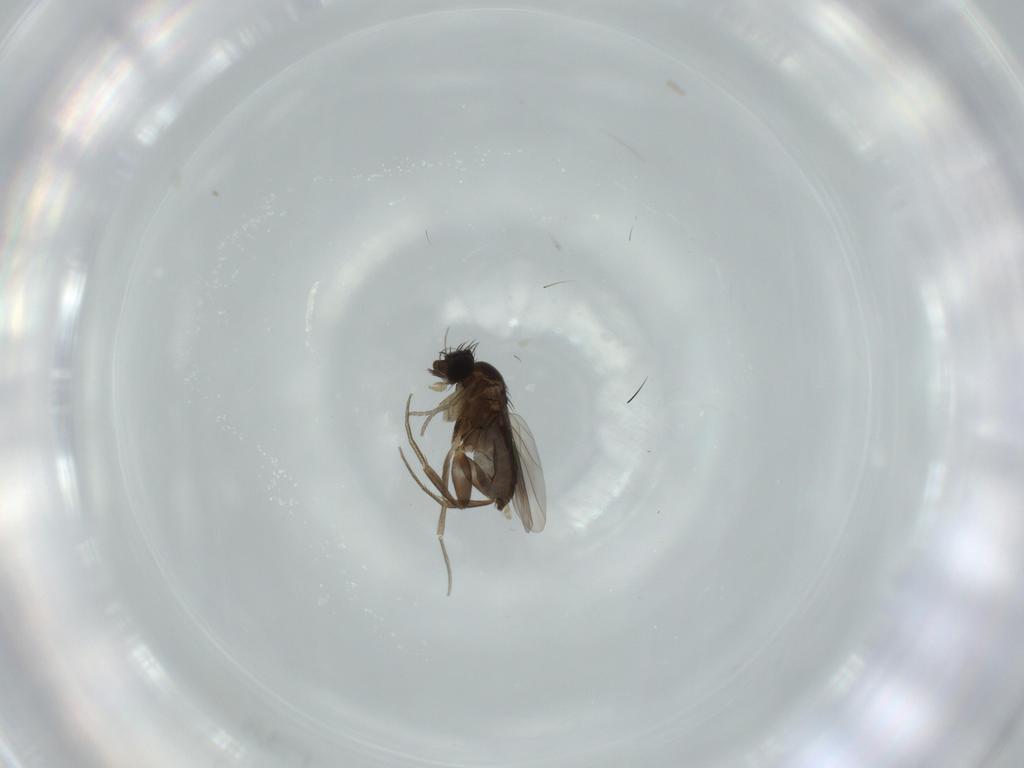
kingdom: Animalia
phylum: Arthropoda
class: Insecta
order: Diptera
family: Phoridae
